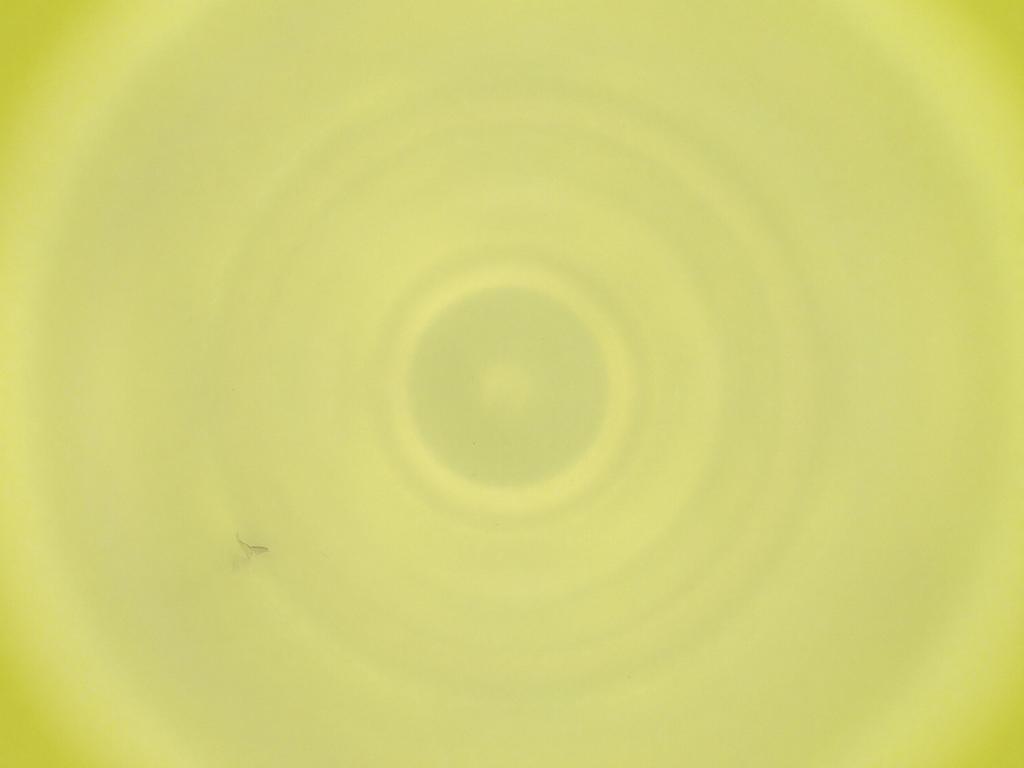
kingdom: Animalia
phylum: Arthropoda
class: Insecta
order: Diptera
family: Cecidomyiidae
